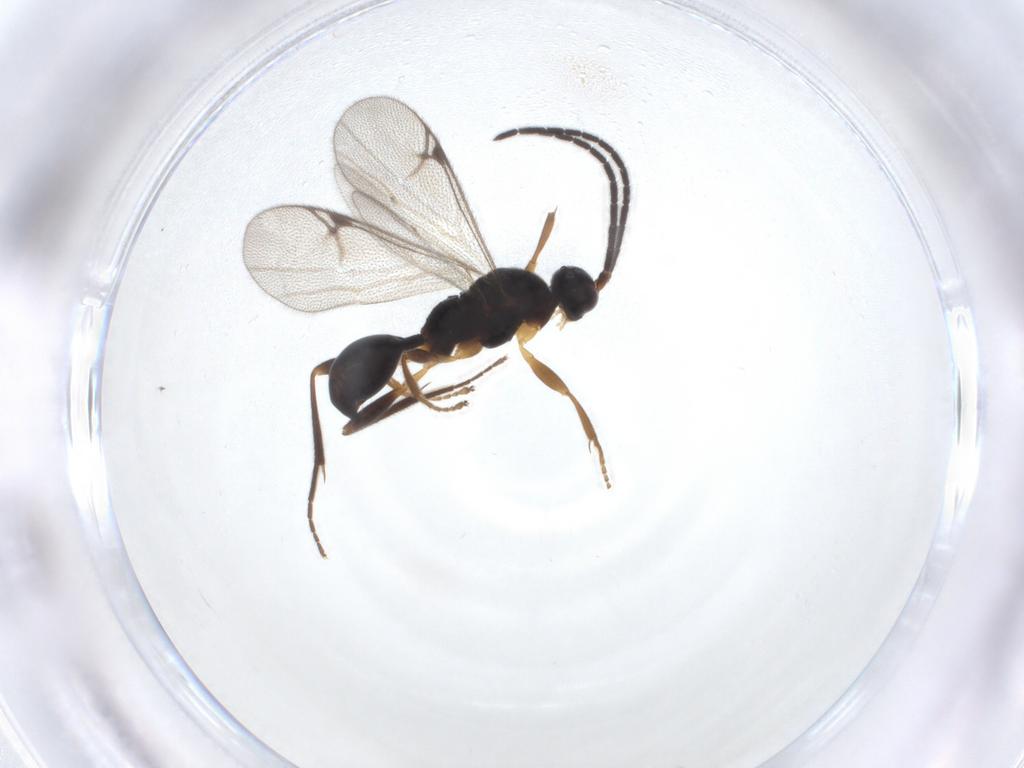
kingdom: Animalia
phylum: Arthropoda
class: Insecta
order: Hymenoptera
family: Proctotrupidae
